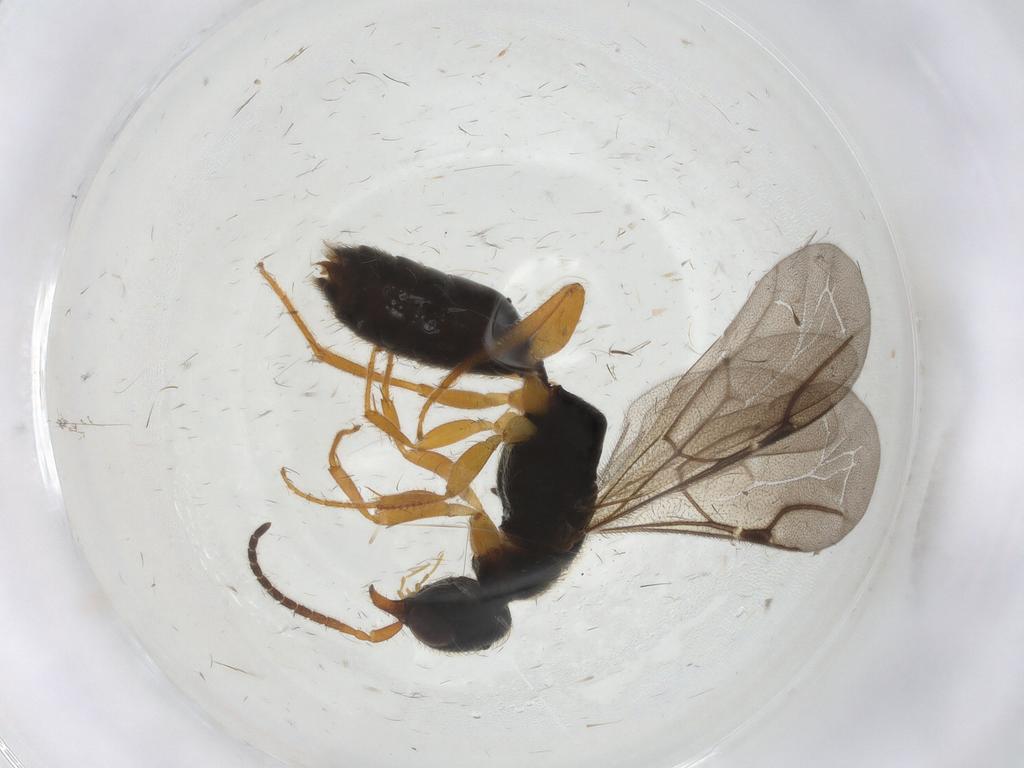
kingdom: Animalia
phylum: Arthropoda
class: Insecta
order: Hymenoptera
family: Bethylidae
